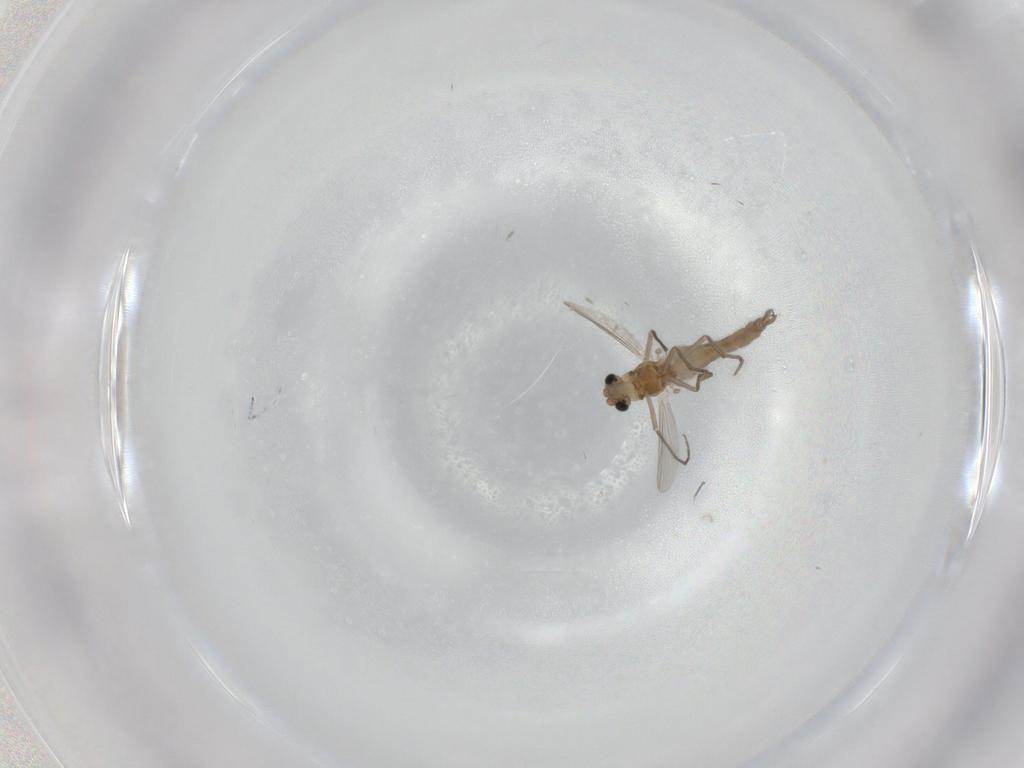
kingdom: Animalia
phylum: Arthropoda
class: Insecta
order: Diptera
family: Chironomidae
